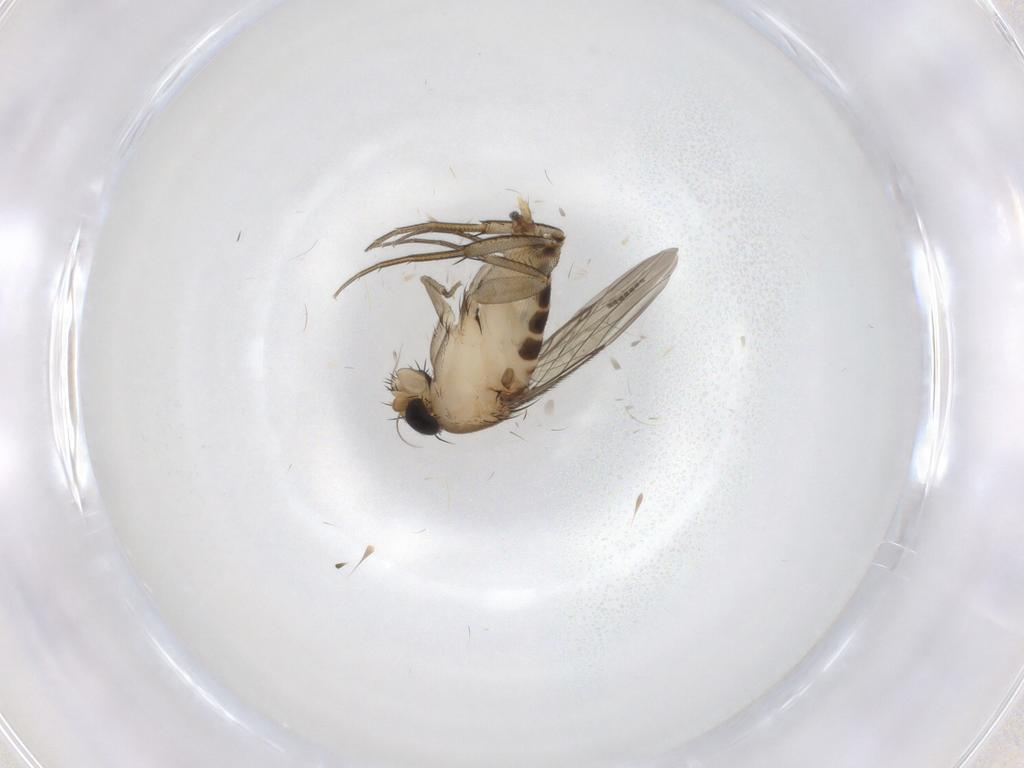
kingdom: Animalia
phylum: Arthropoda
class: Insecta
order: Diptera
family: Phoridae
